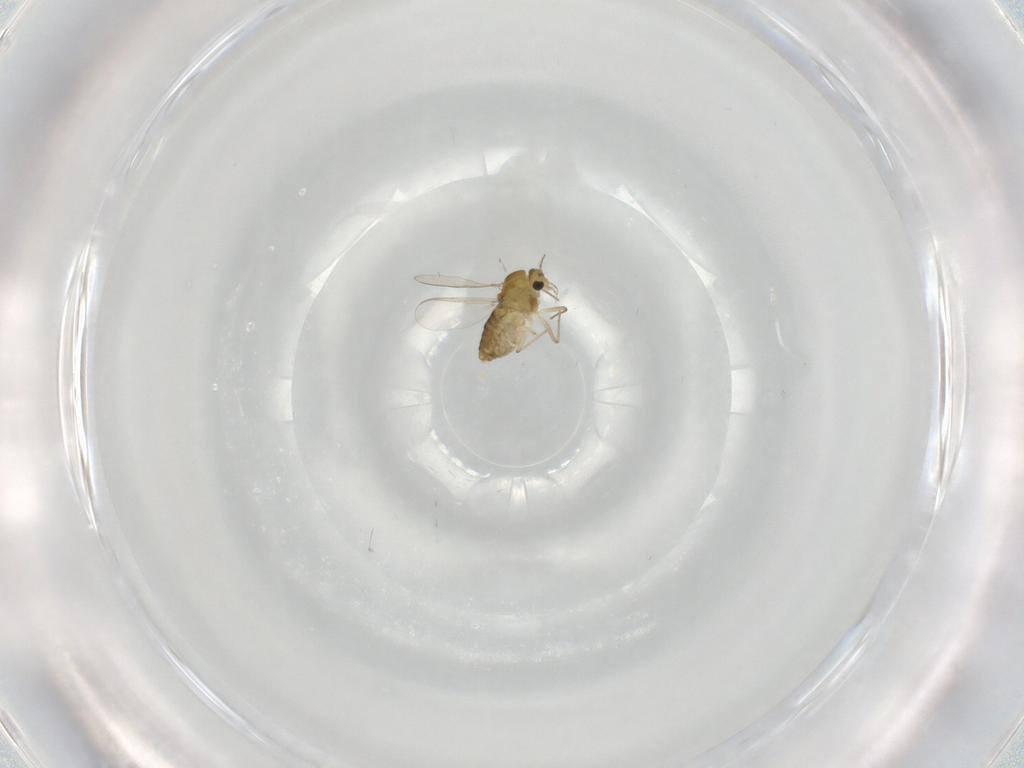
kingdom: Animalia
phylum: Arthropoda
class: Insecta
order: Diptera
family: Chironomidae
